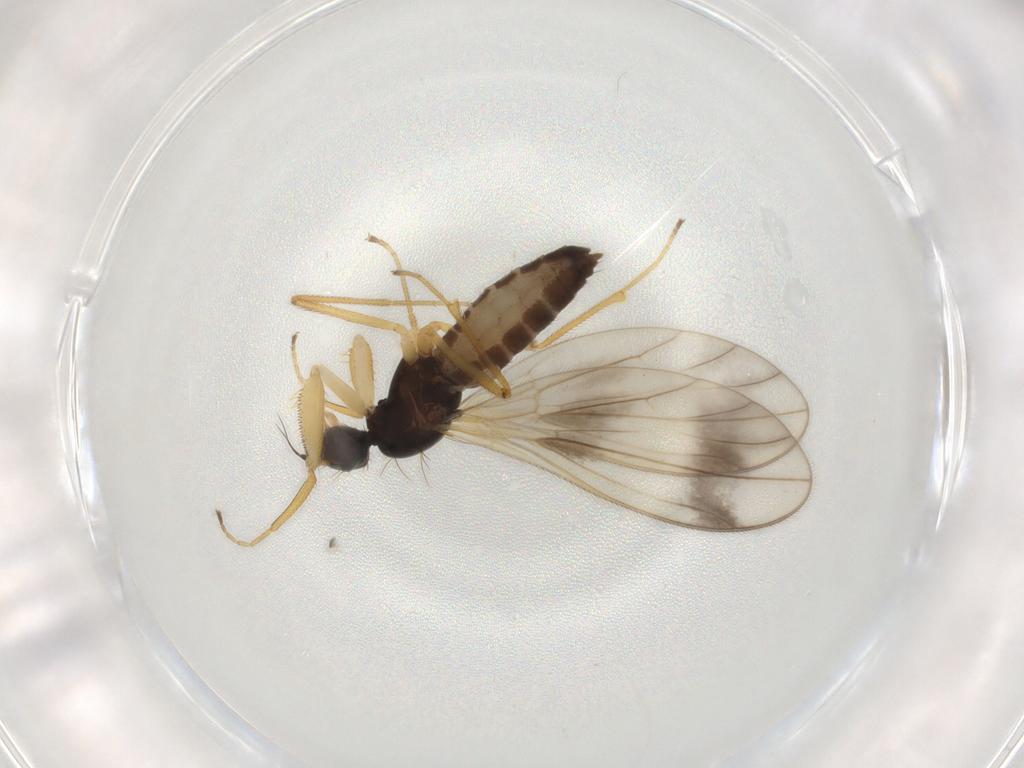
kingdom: Animalia
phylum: Arthropoda
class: Insecta
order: Diptera
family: Empididae
